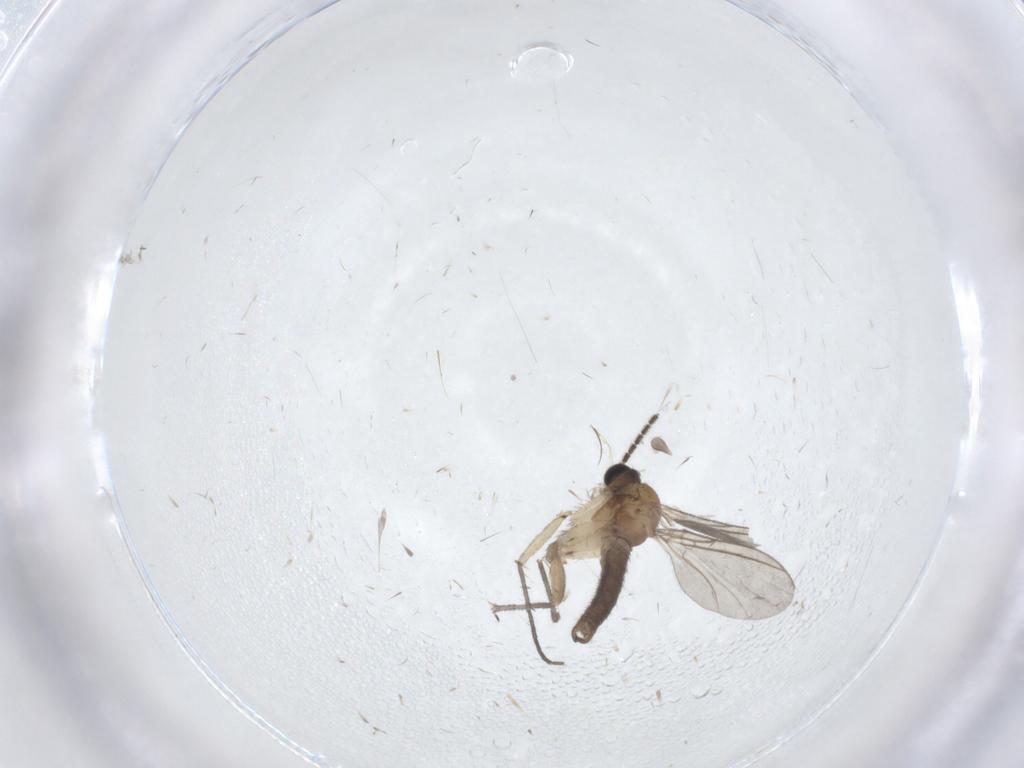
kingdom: Animalia
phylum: Arthropoda
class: Insecta
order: Diptera
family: Sciaridae
